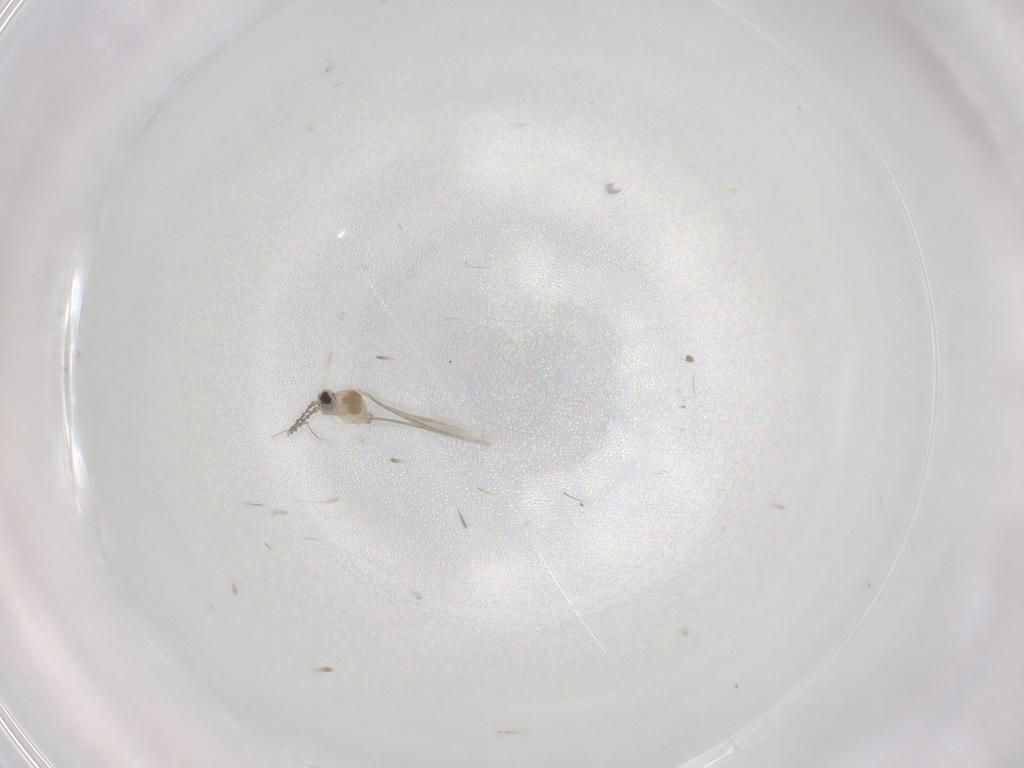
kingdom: Animalia
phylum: Arthropoda
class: Insecta
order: Diptera
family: Cecidomyiidae
